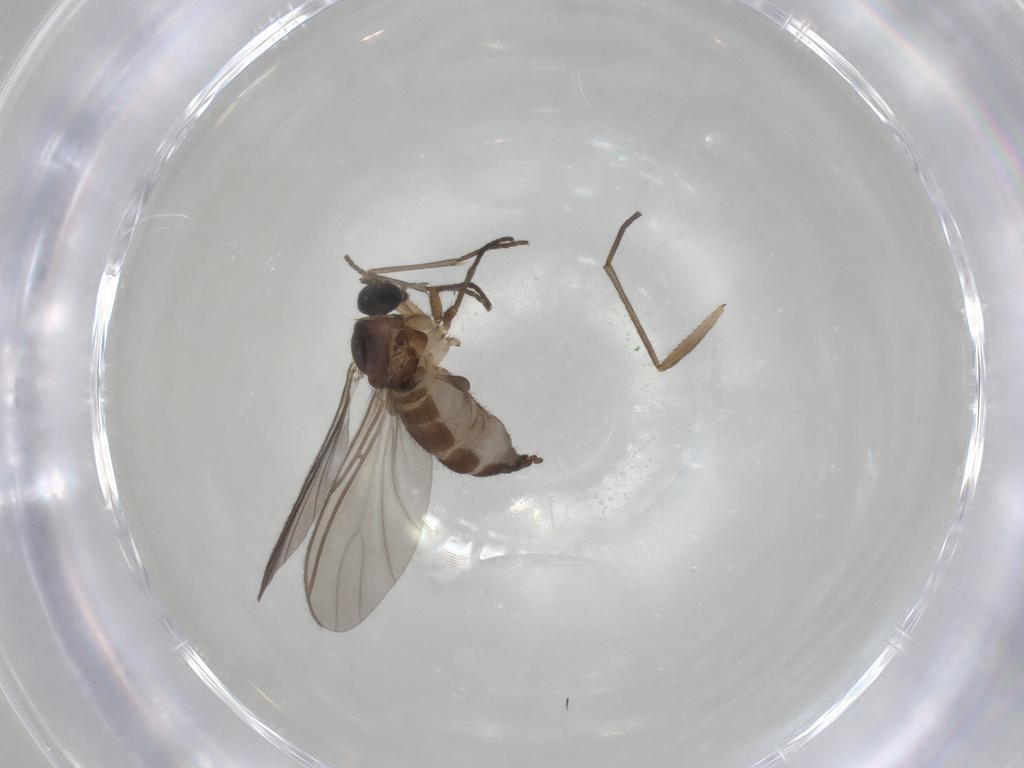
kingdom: Animalia
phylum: Arthropoda
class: Insecta
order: Diptera
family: Sciaridae
